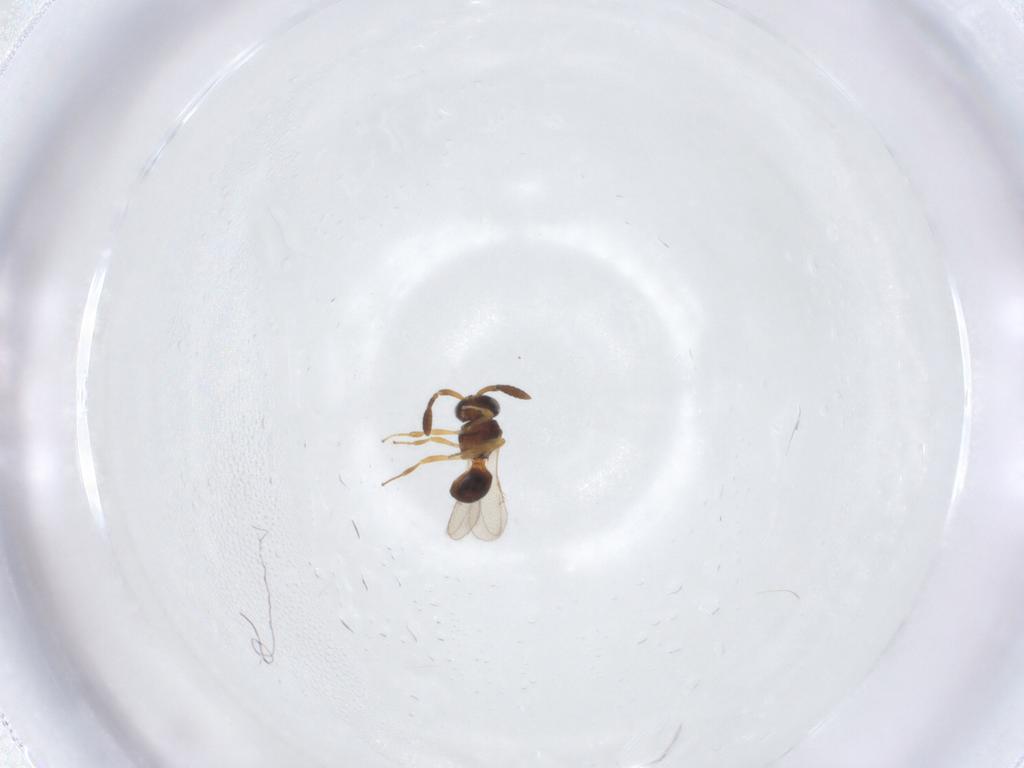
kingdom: Animalia
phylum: Arthropoda
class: Insecta
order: Hymenoptera
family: Scelionidae
